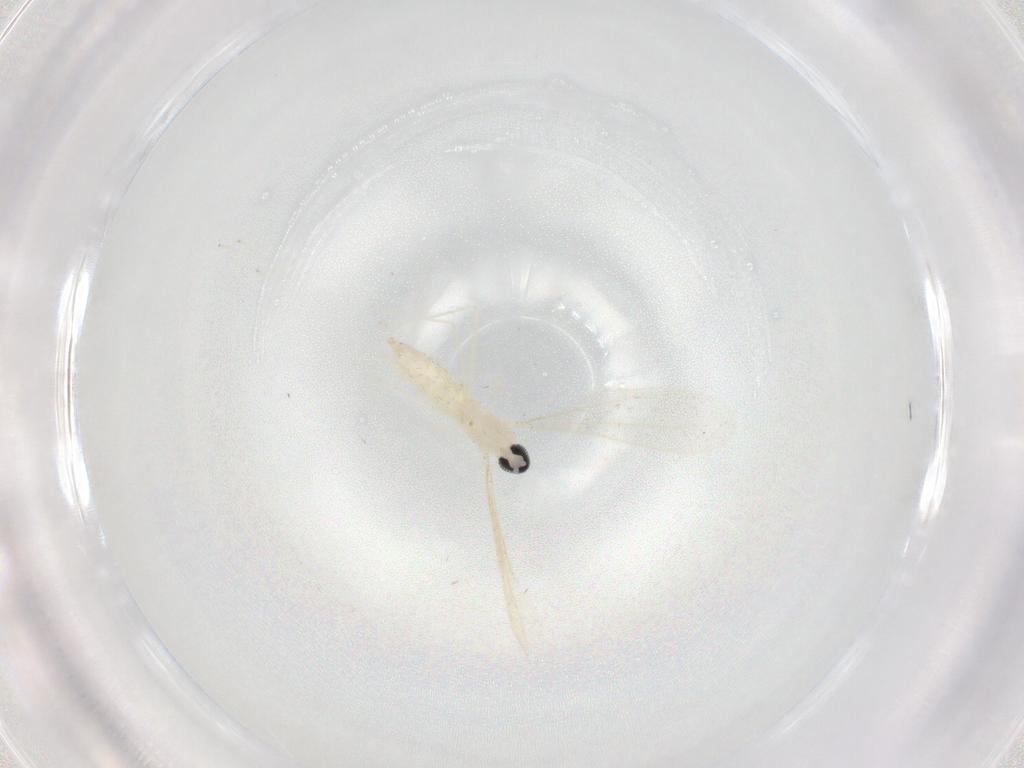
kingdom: Animalia
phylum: Arthropoda
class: Insecta
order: Diptera
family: Cecidomyiidae
